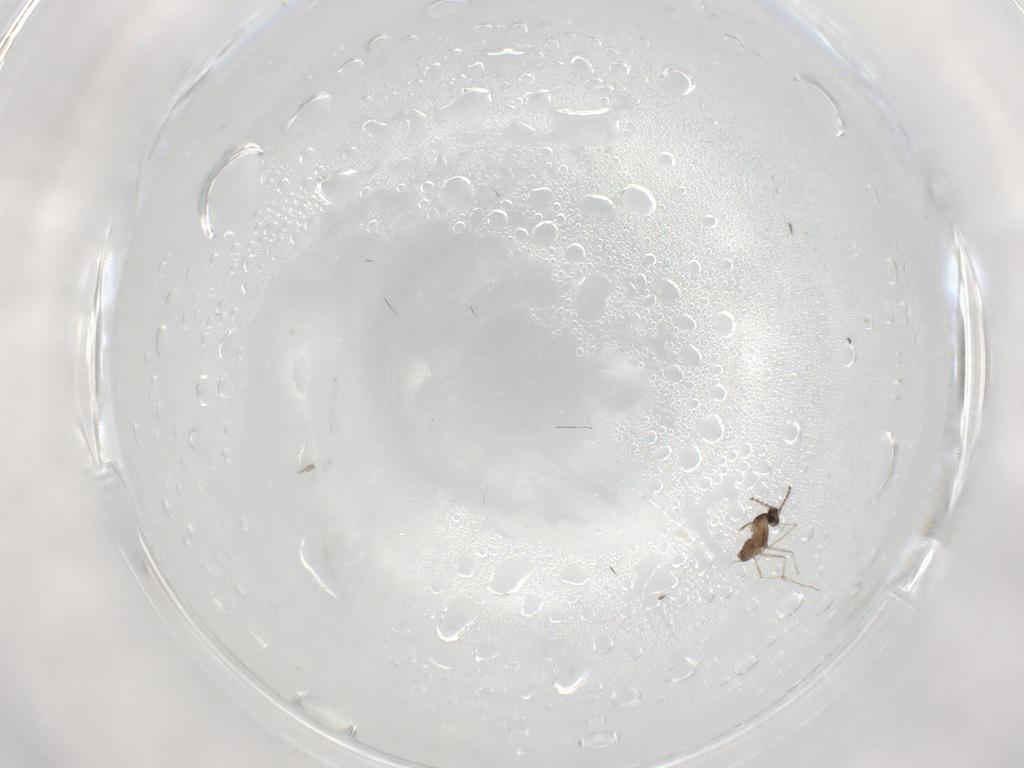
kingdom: Animalia
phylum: Arthropoda
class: Insecta
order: Diptera
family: Cecidomyiidae
